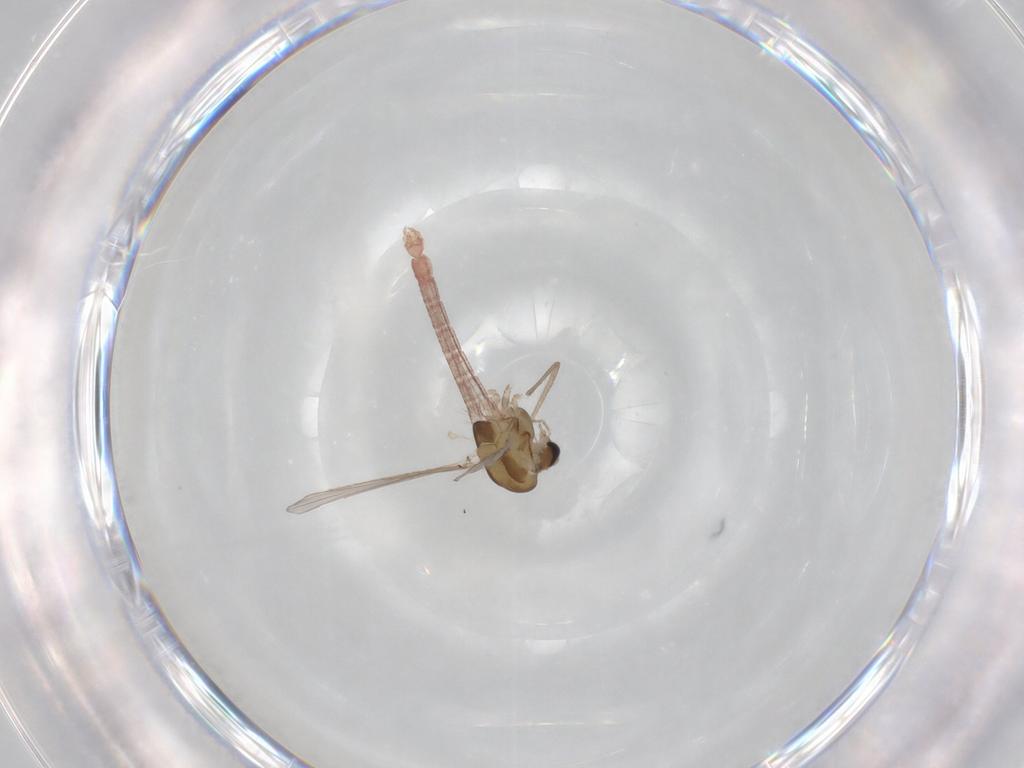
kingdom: Animalia
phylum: Arthropoda
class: Insecta
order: Diptera
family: Chironomidae
